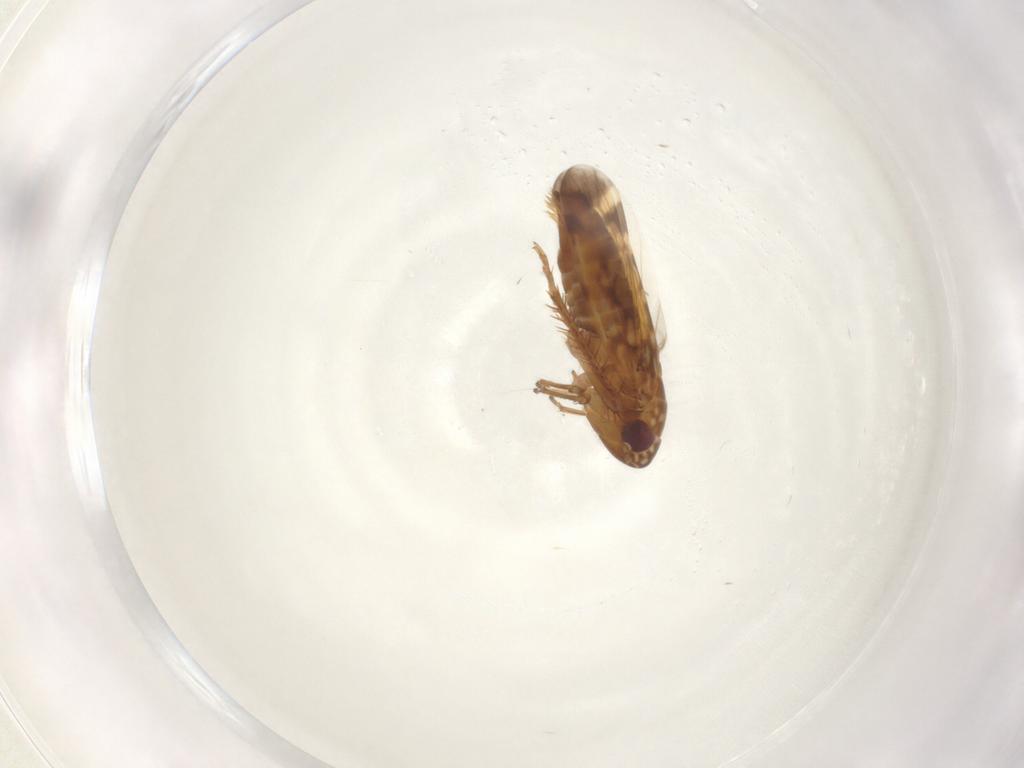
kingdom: Animalia
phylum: Arthropoda
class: Insecta
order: Hemiptera
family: Cicadellidae
